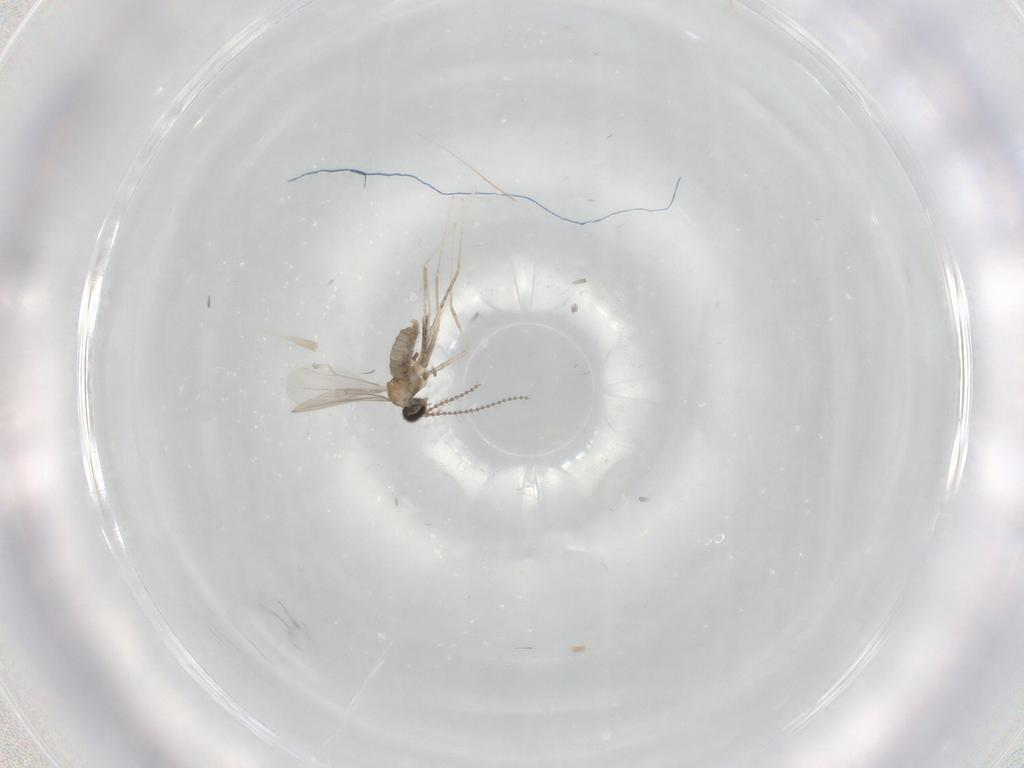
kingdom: Animalia
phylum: Arthropoda
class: Insecta
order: Diptera
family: Cecidomyiidae
